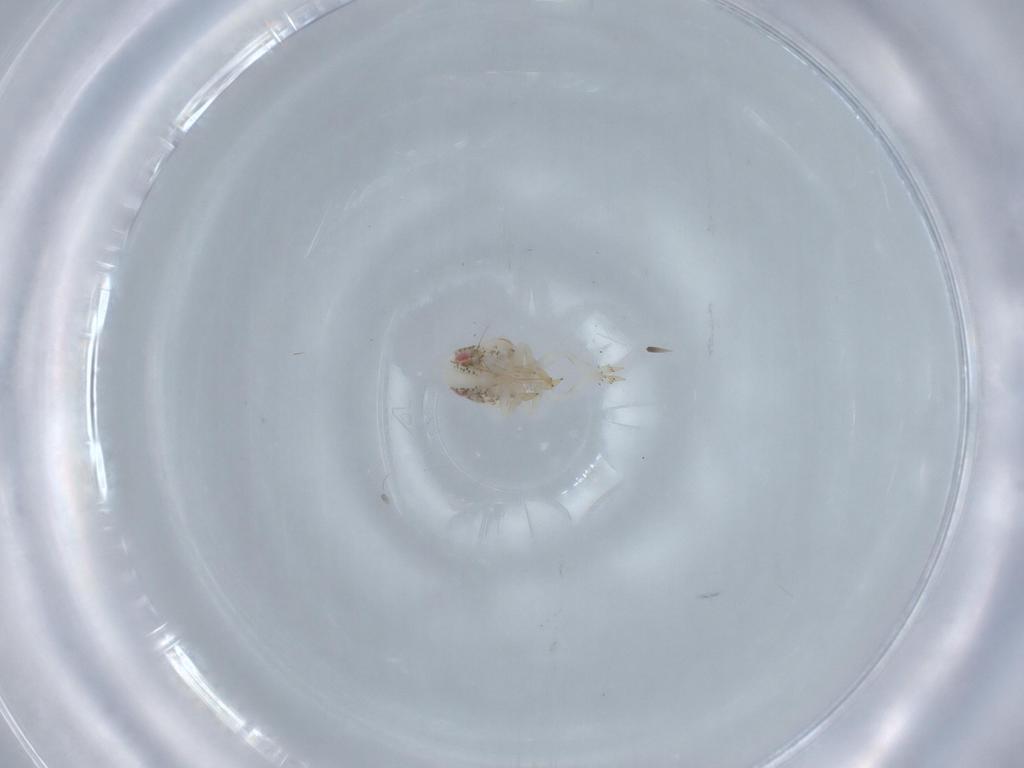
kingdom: Animalia
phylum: Arthropoda
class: Insecta
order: Hemiptera
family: Acanaloniidae
